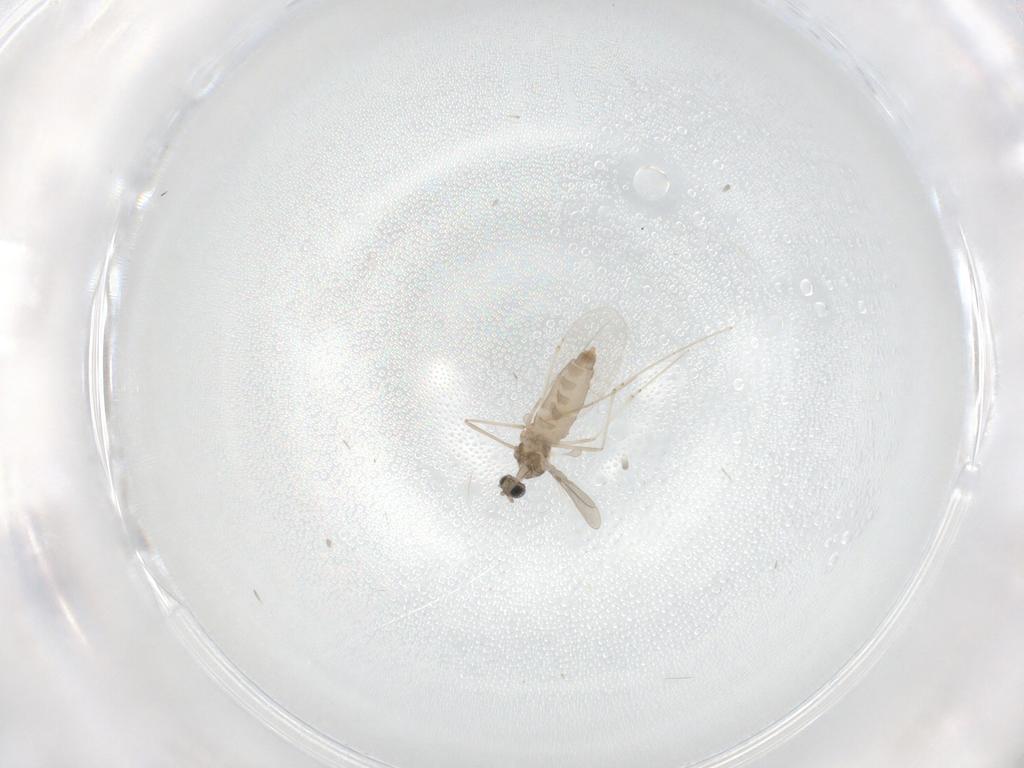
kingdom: Animalia
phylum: Arthropoda
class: Insecta
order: Diptera
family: Cecidomyiidae
